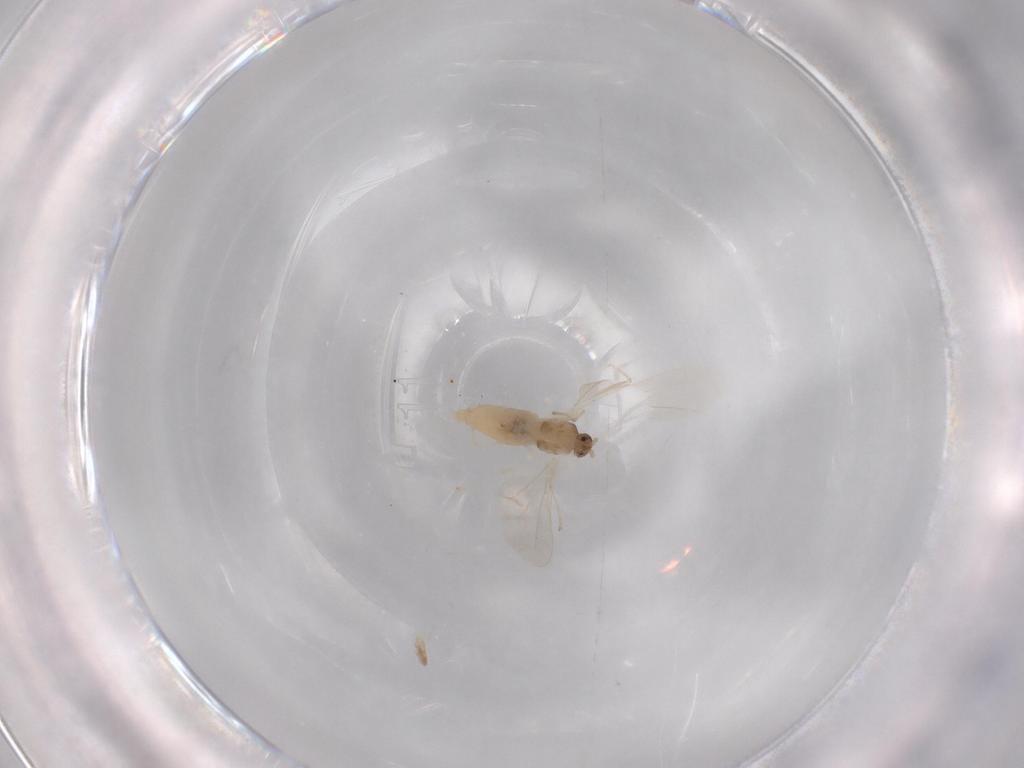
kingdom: Animalia
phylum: Arthropoda
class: Insecta
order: Diptera
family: Cecidomyiidae
